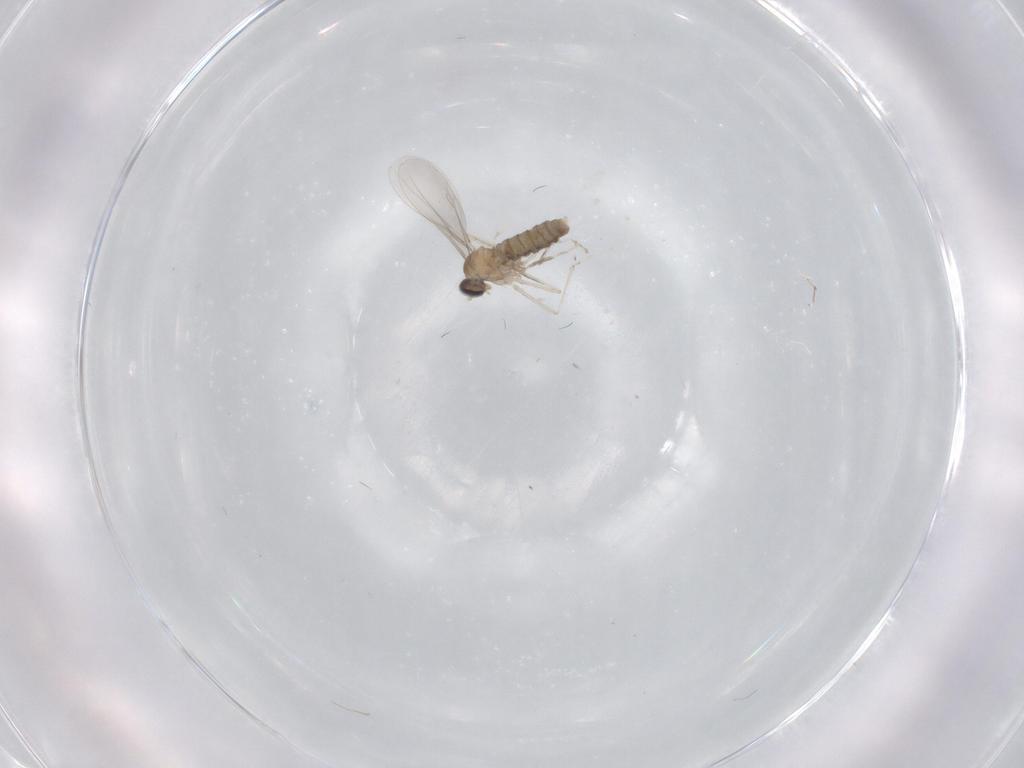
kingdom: Animalia
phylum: Arthropoda
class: Insecta
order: Diptera
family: Cecidomyiidae
